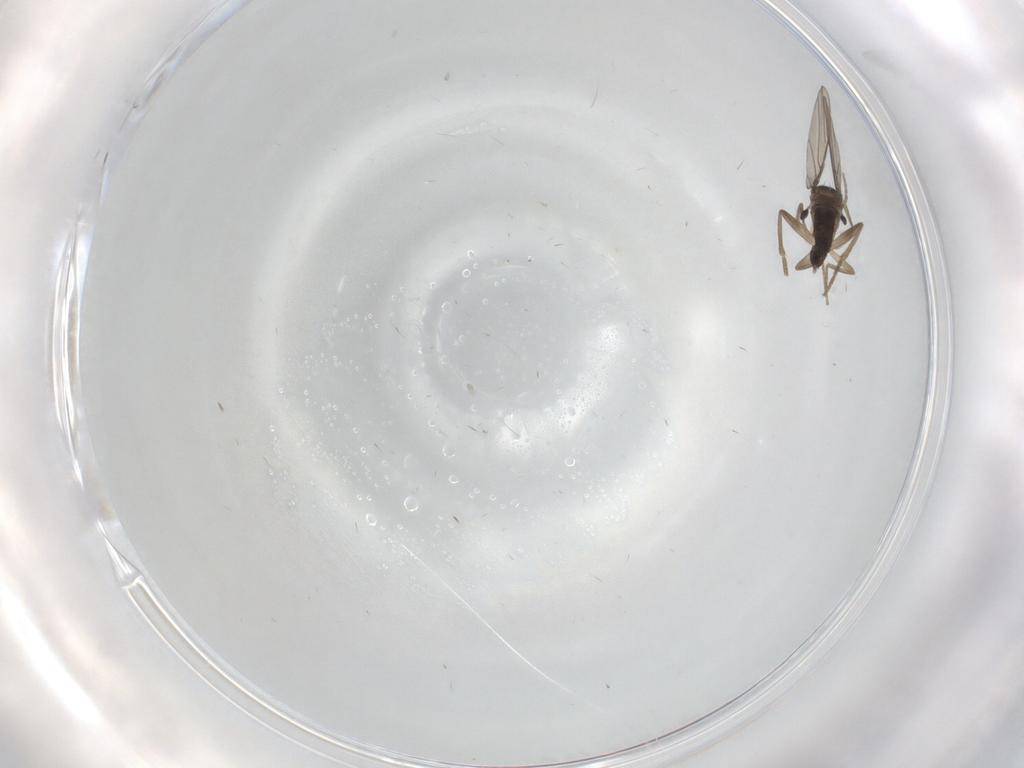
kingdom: Animalia
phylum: Arthropoda
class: Insecta
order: Diptera
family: Phoridae
